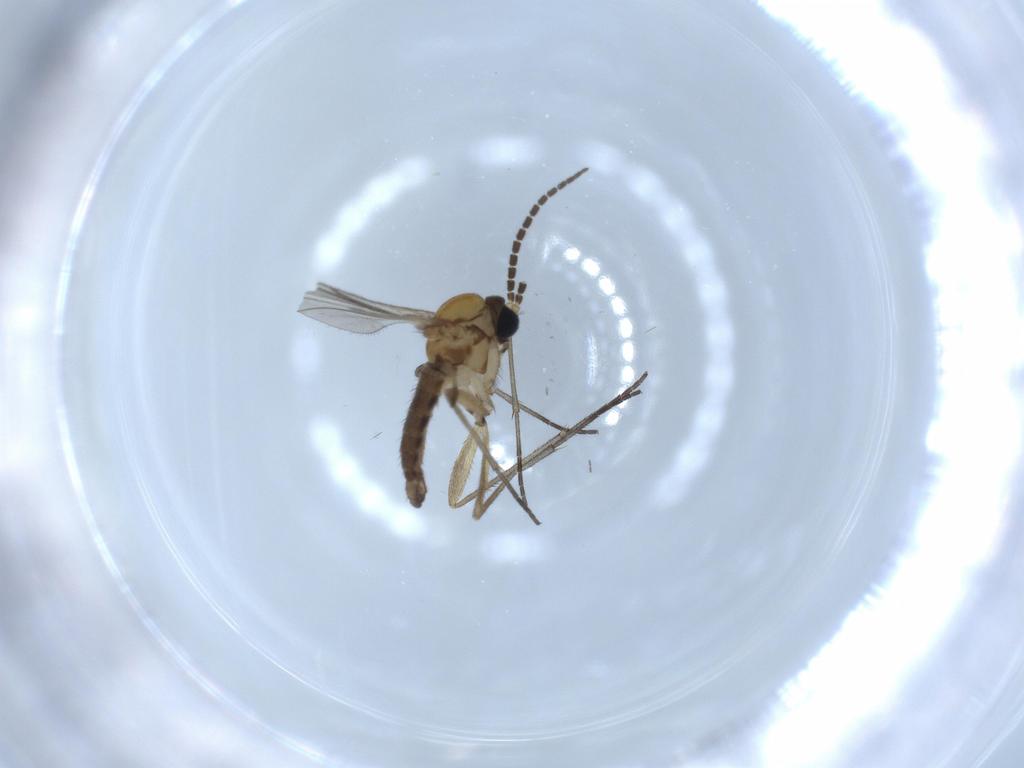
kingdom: Animalia
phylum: Arthropoda
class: Insecta
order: Diptera
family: Sciaridae
